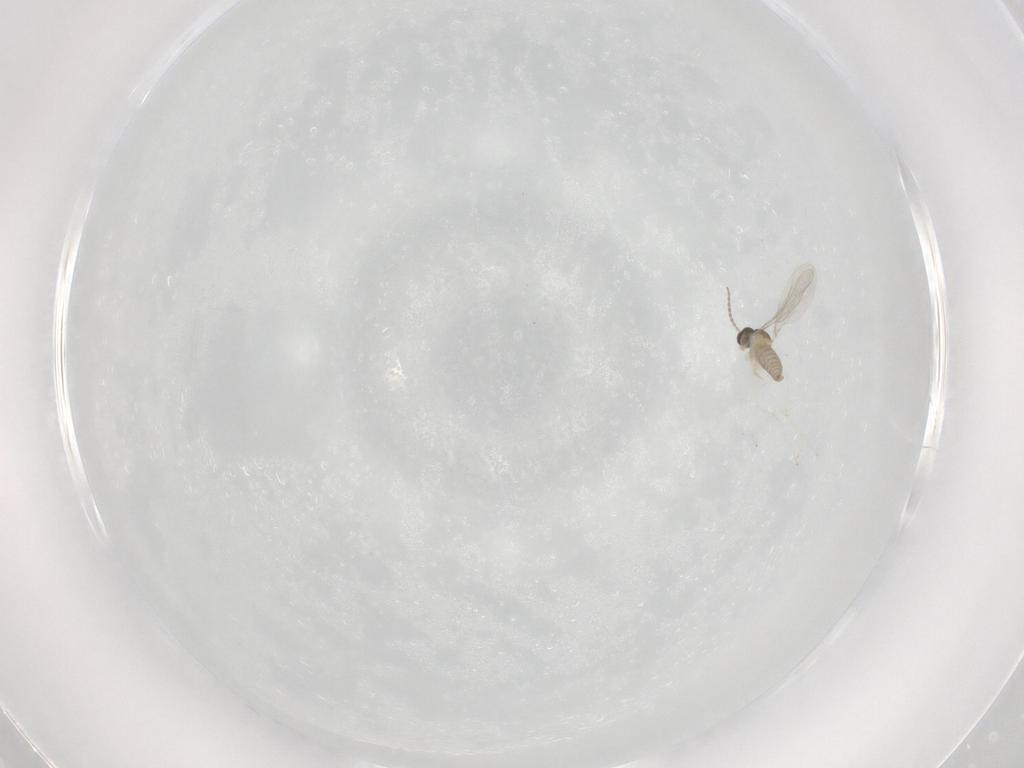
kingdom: Animalia
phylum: Arthropoda
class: Insecta
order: Diptera
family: Cecidomyiidae
